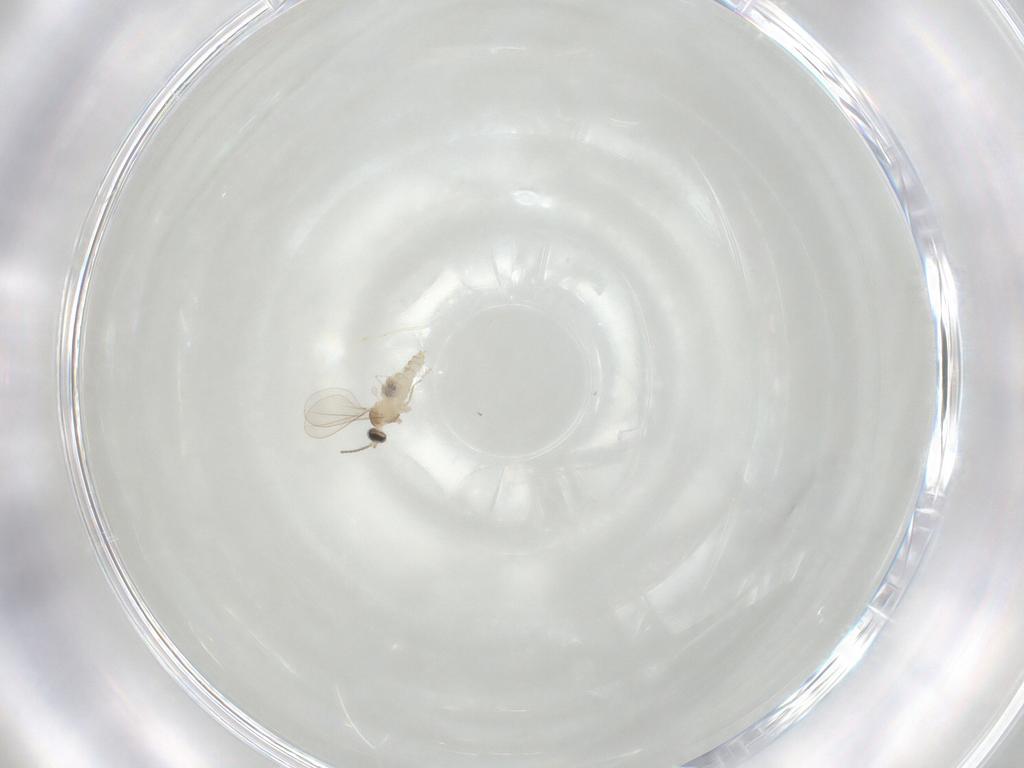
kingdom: Animalia
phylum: Arthropoda
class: Insecta
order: Diptera
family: Cecidomyiidae
